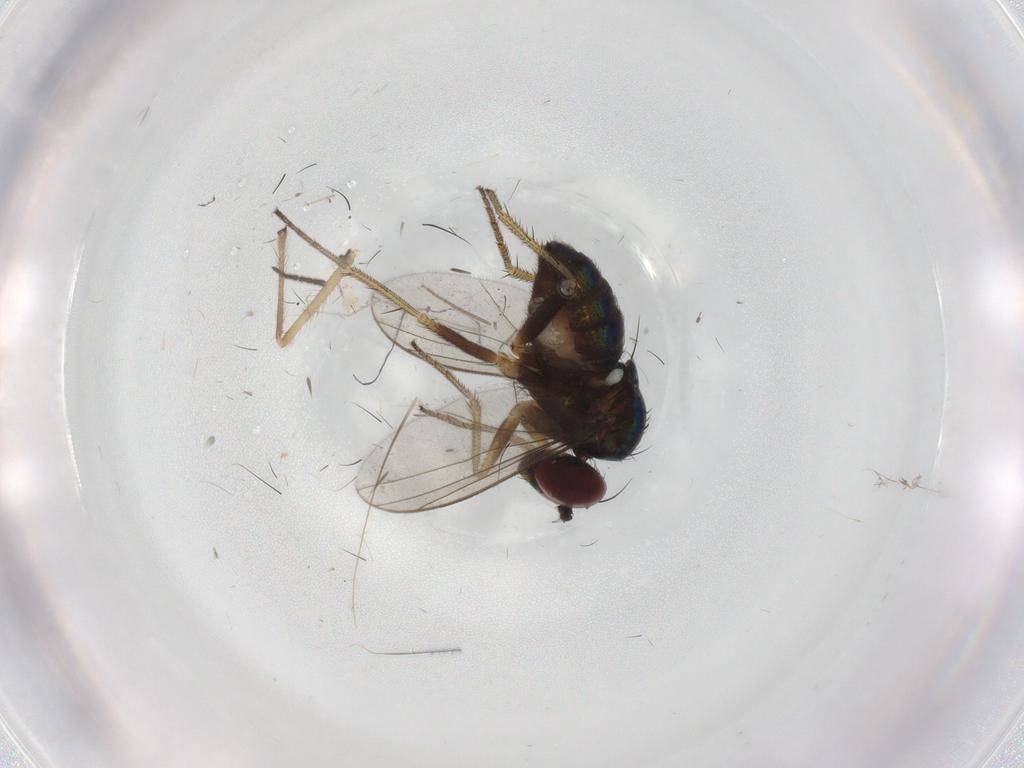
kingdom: Animalia
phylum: Arthropoda
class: Insecta
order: Diptera
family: Dolichopodidae
